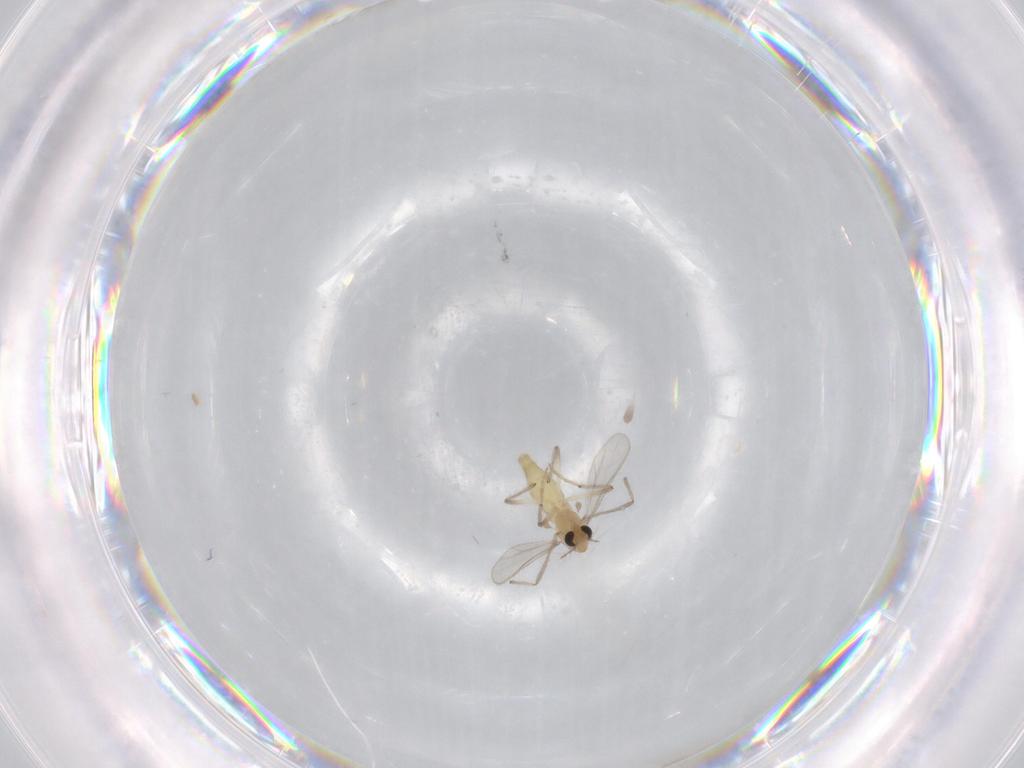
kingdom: Animalia
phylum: Arthropoda
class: Insecta
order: Diptera
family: Chironomidae
